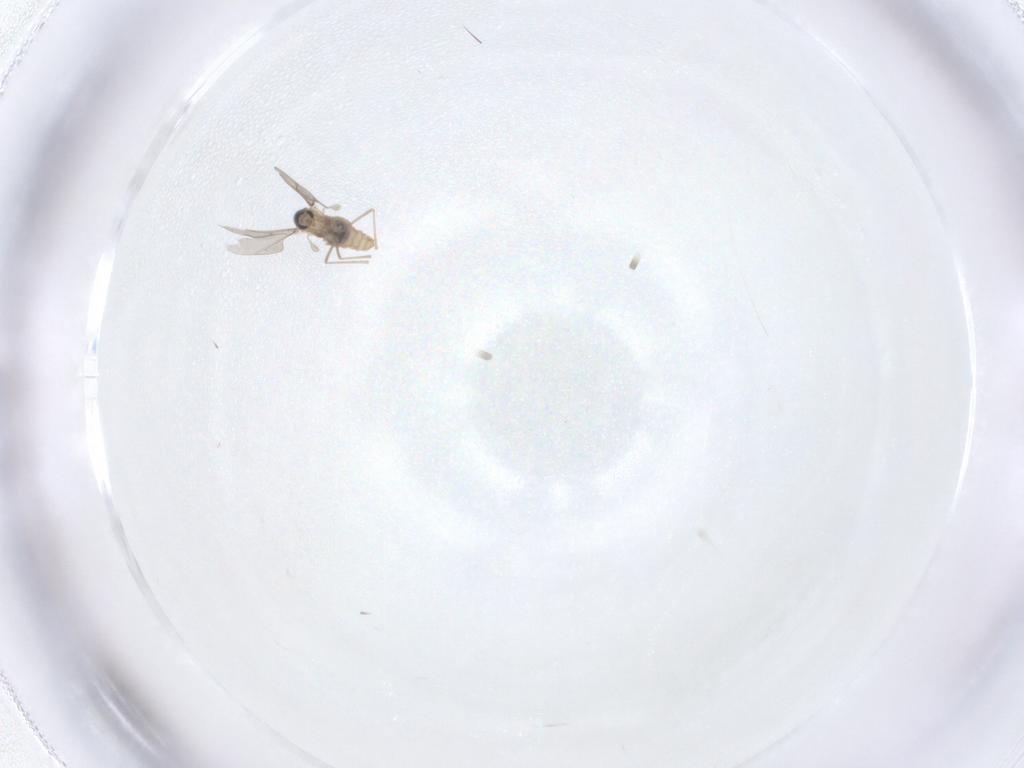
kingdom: Animalia
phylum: Arthropoda
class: Insecta
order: Diptera
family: Cecidomyiidae
